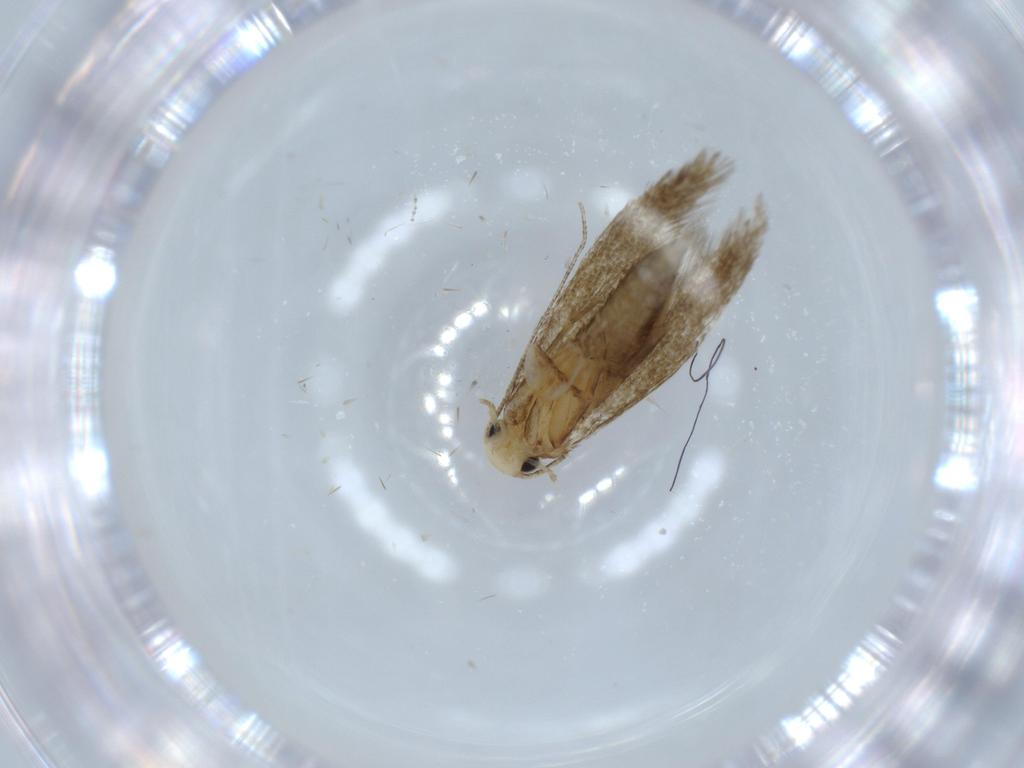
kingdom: Animalia
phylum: Arthropoda
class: Insecta
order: Lepidoptera
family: Tineidae
